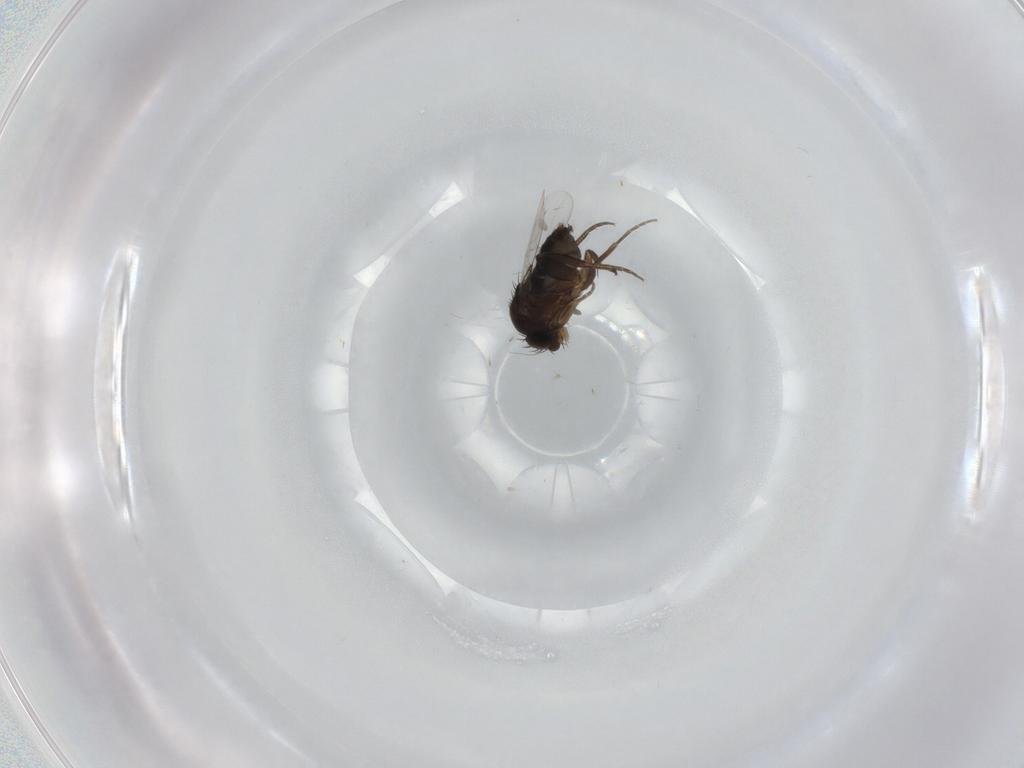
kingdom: Animalia
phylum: Arthropoda
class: Insecta
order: Diptera
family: Phoridae
